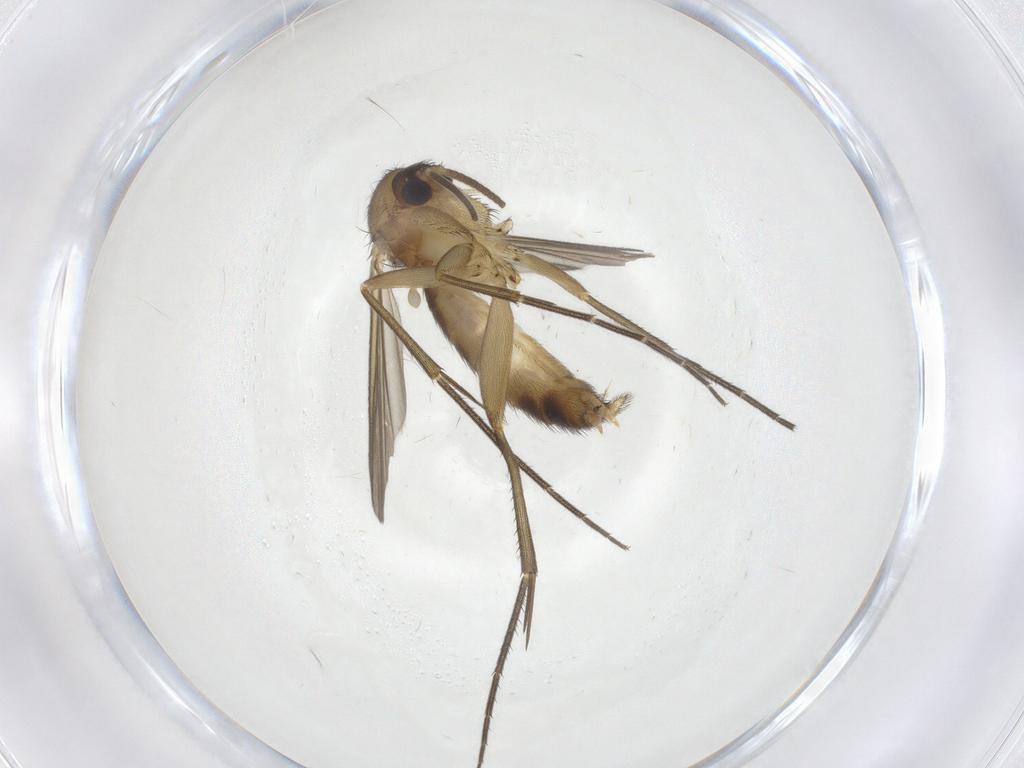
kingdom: Animalia
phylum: Arthropoda
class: Insecta
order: Diptera
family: Mycetophilidae
